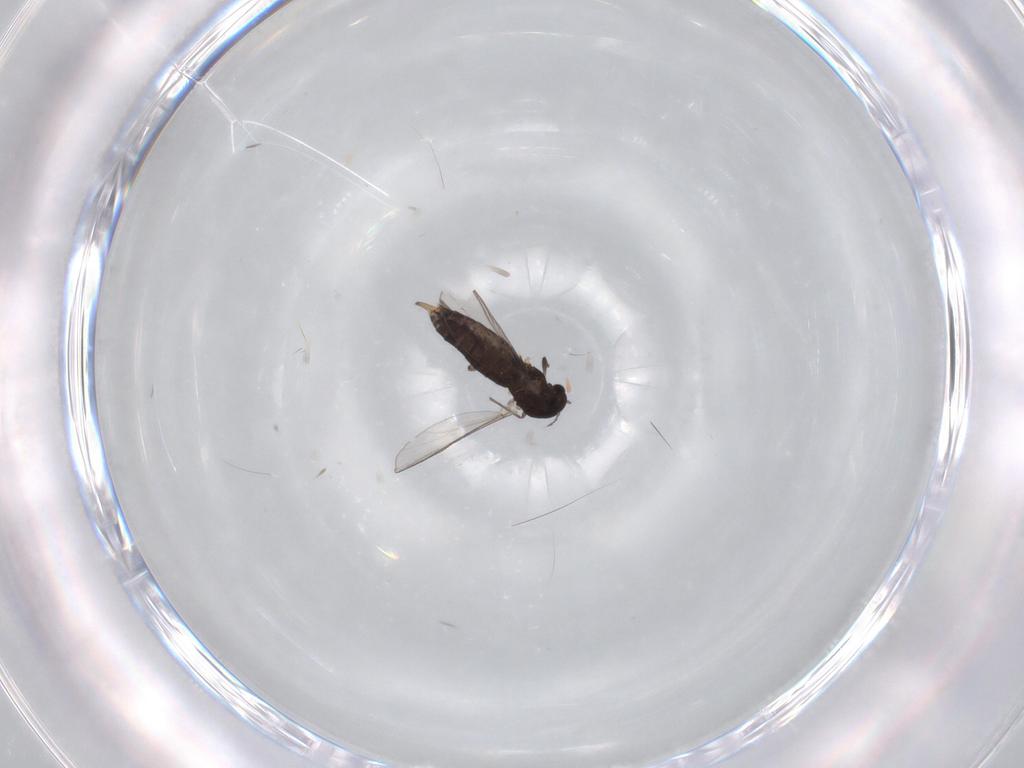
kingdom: Animalia
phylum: Arthropoda
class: Insecta
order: Diptera
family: Chironomidae
